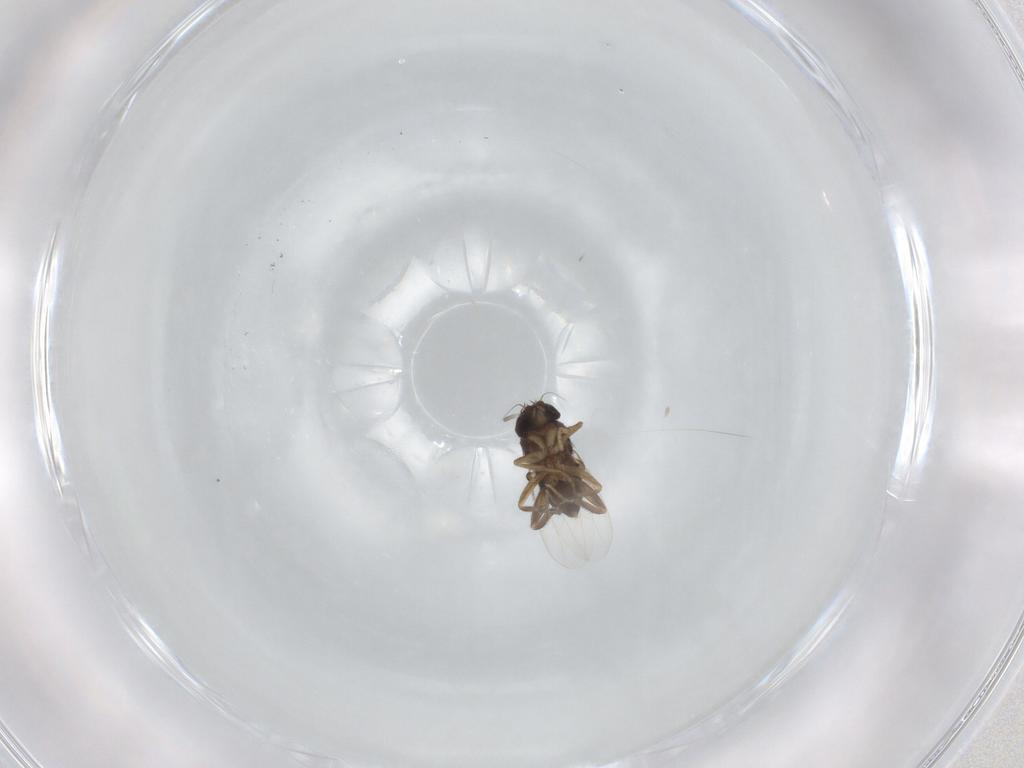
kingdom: Animalia
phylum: Arthropoda
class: Insecta
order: Diptera
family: Phoridae
